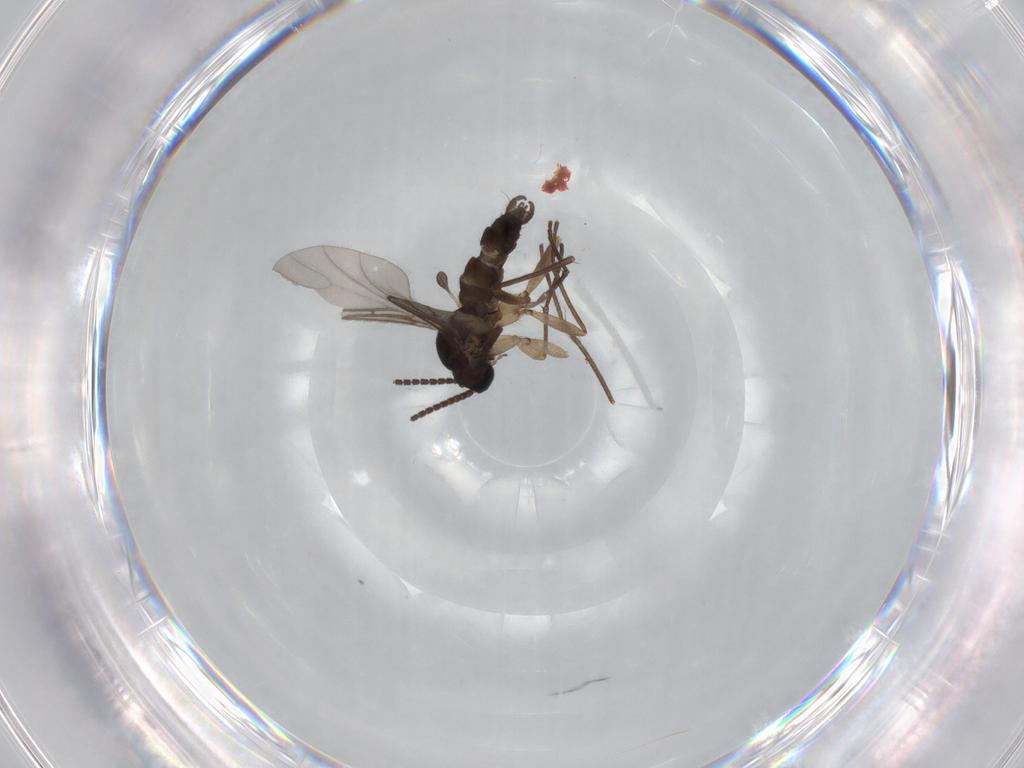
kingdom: Animalia
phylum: Arthropoda
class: Insecta
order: Diptera
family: Sciaridae
